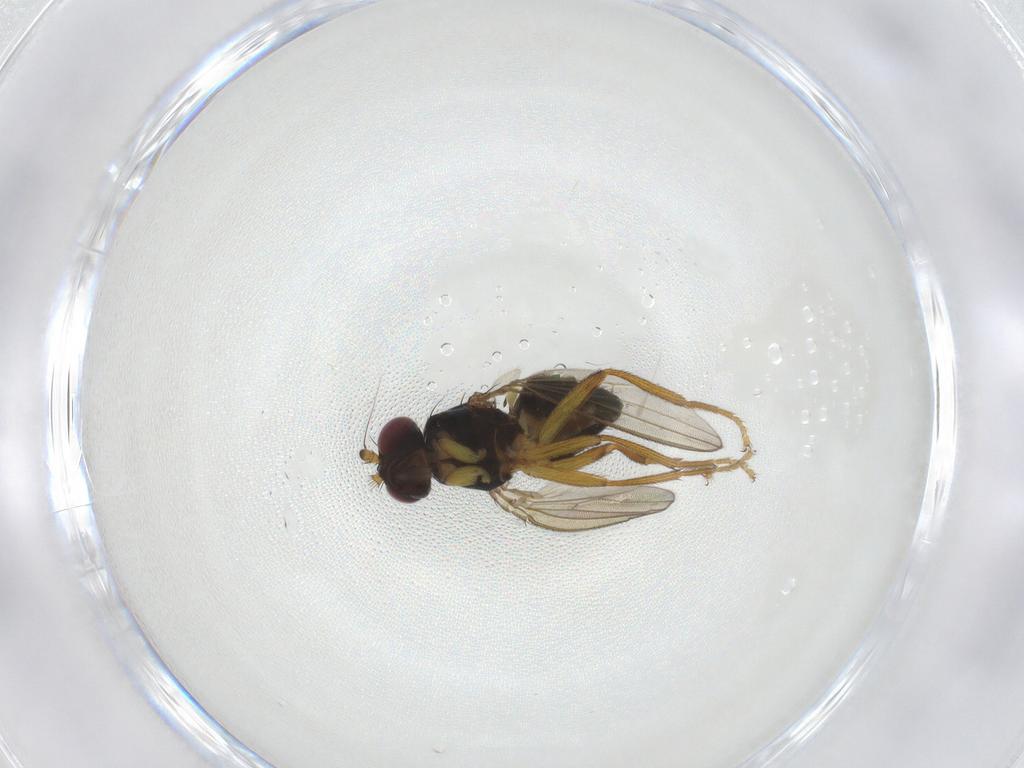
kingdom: Animalia
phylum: Arthropoda
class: Insecta
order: Diptera
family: Pseudopomyzidae
